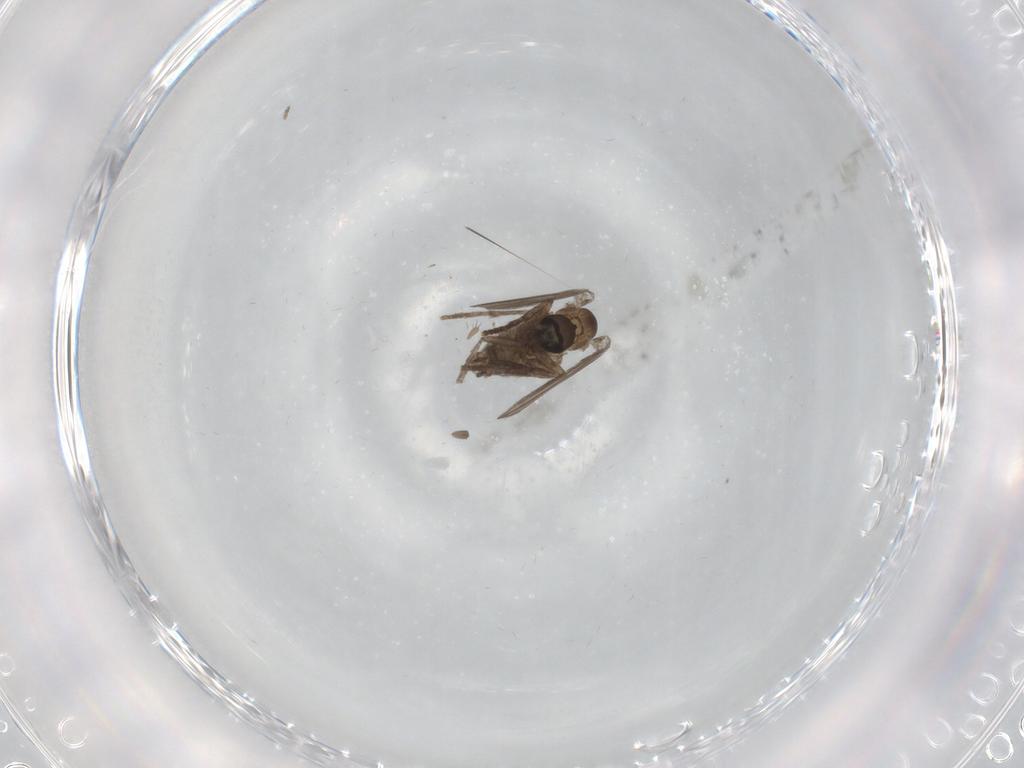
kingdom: Animalia
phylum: Arthropoda
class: Insecta
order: Diptera
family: Psychodidae
